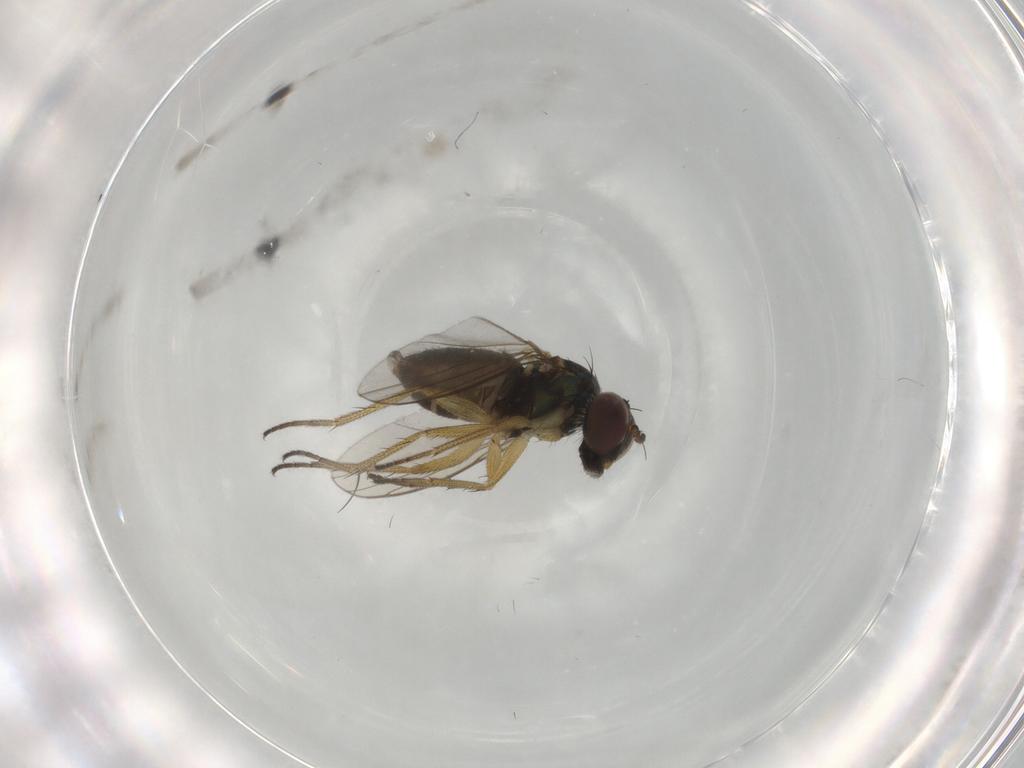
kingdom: Animalia
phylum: Arthropoda
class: Insecta
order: Diptera
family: Dolichopodidae
